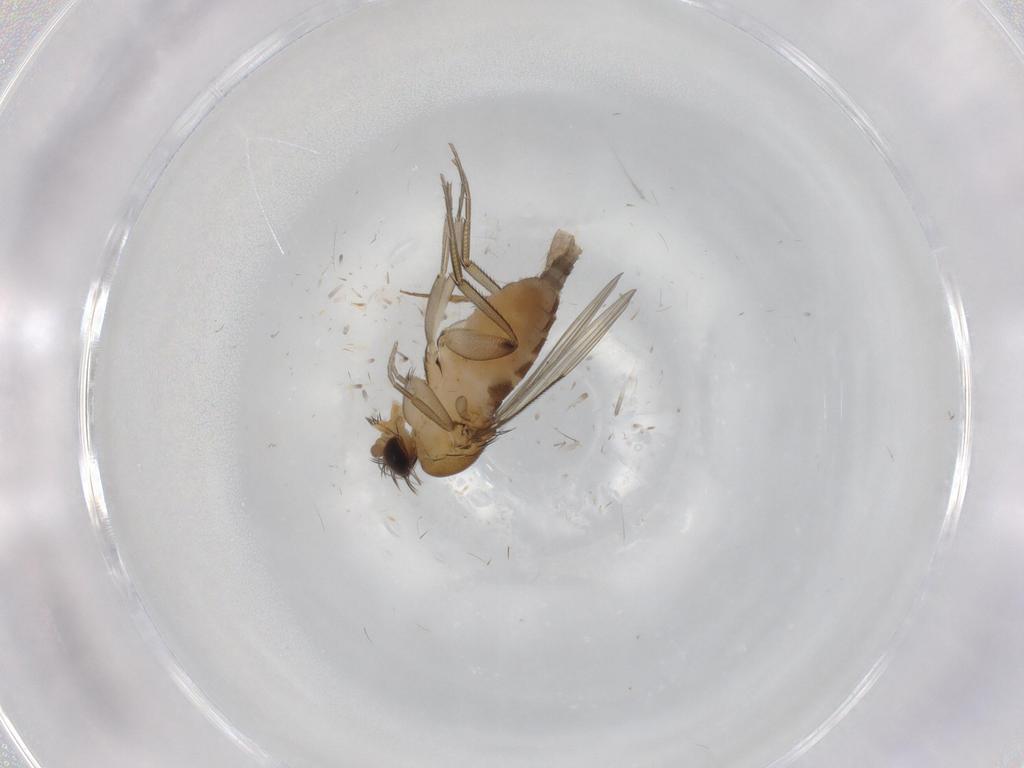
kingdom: Animalia
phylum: Arthropoda
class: Insecta
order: Diptera
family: Phoridae
